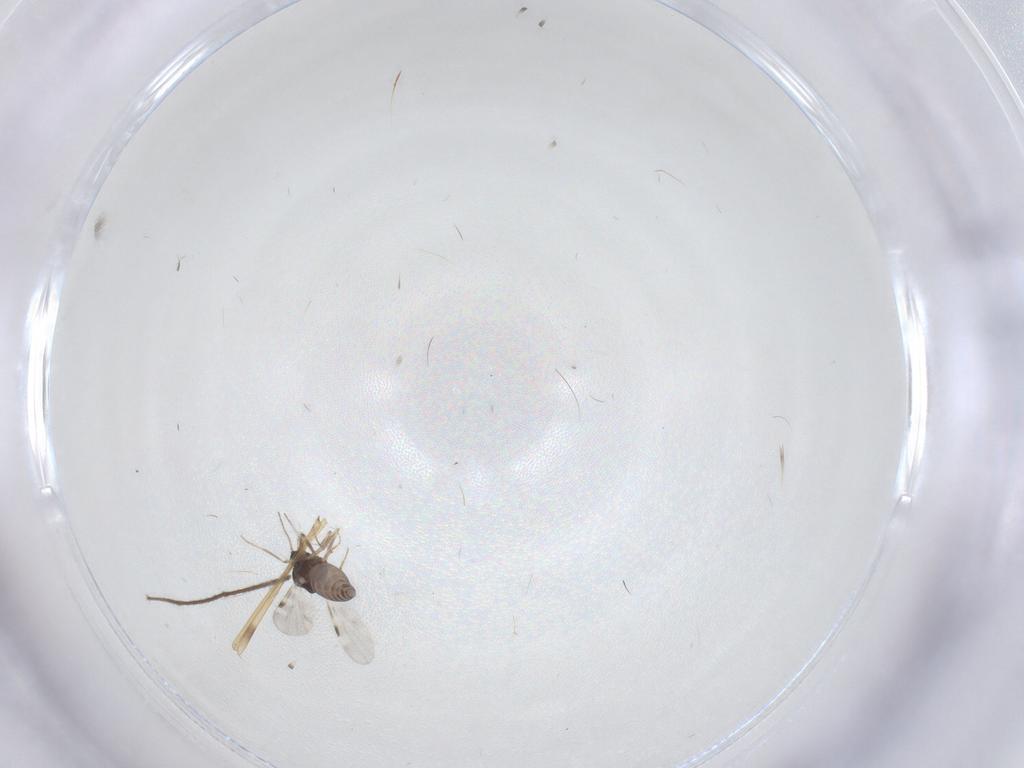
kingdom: Animalia
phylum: Arthropoda
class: Insecta
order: Diptera
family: Chironomidae
